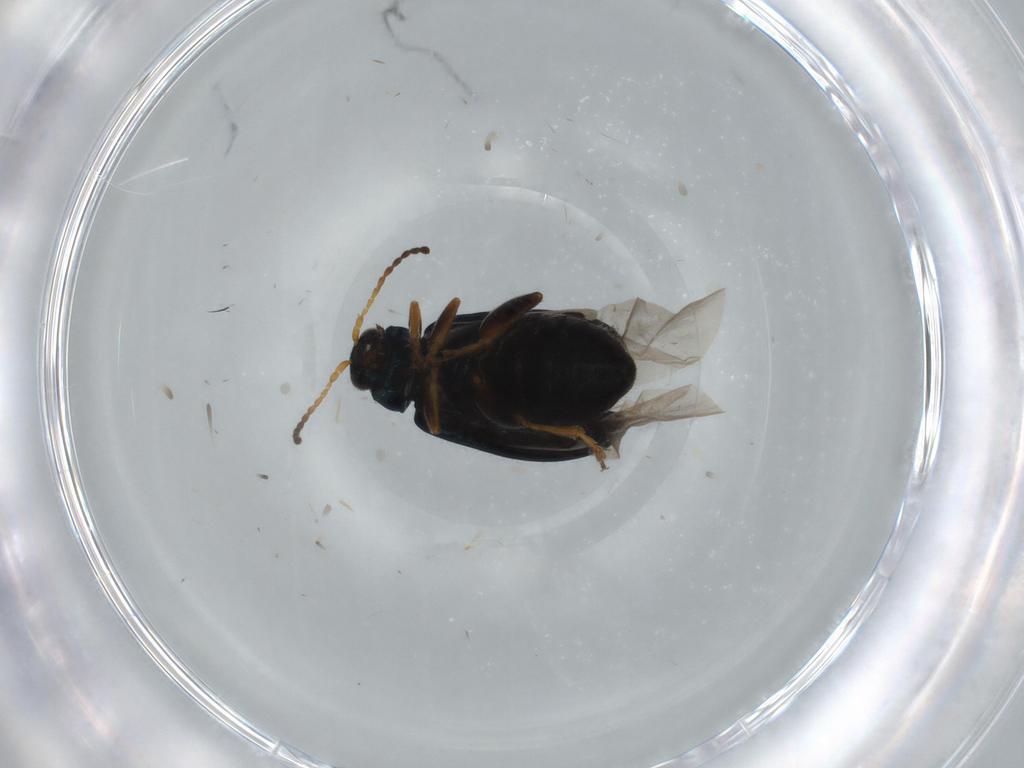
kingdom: Animalia
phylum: Arthropoda
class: Insecta
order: Coleoptera
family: Chrysomelidae
